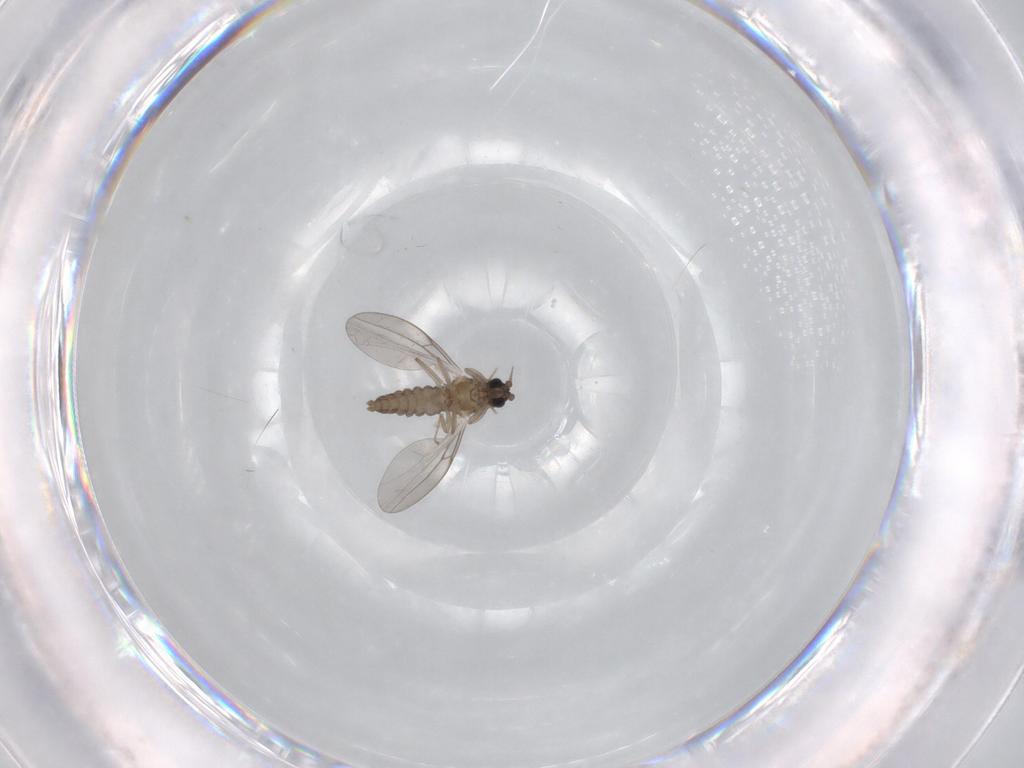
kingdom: Animalia
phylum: Arthropoda
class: Insecta
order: Diptera
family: Cecidomyiidae
